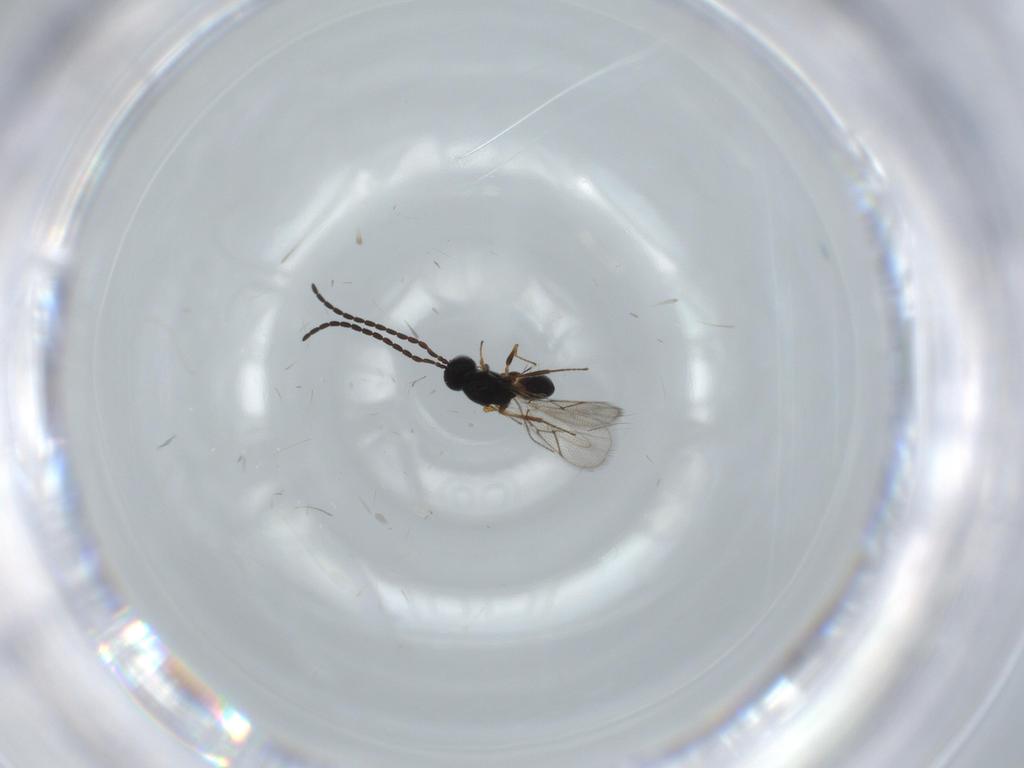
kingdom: Animalia
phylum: Arthropoda
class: Insecta
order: Hymenoptera
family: Figitidae
